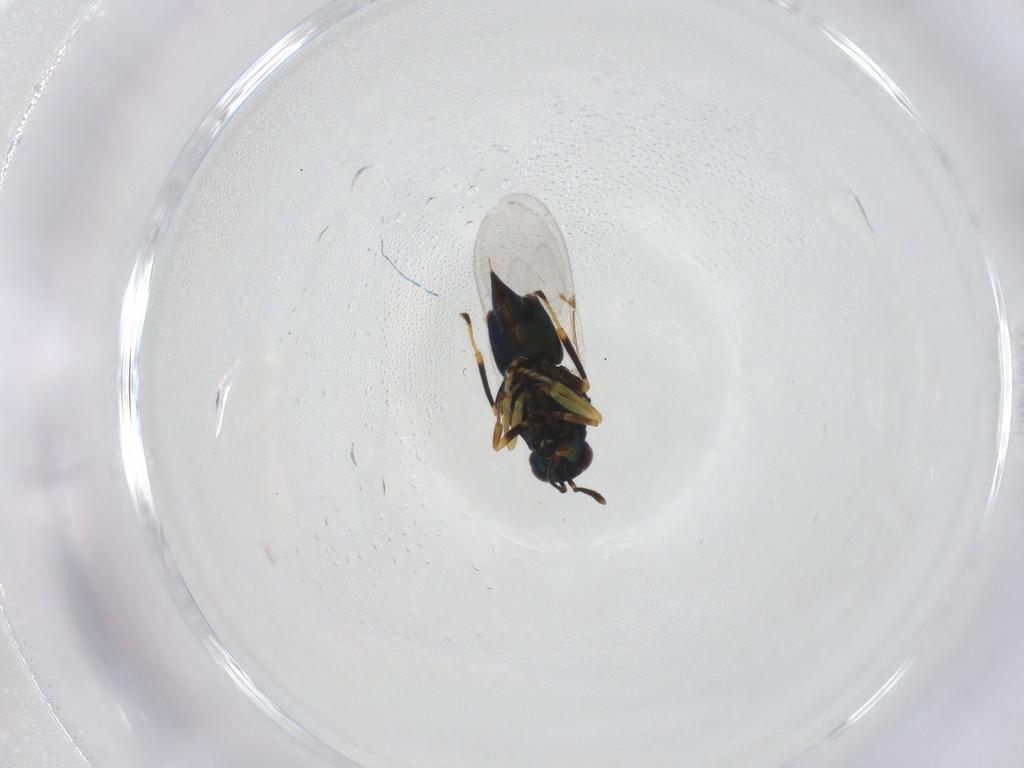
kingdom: Animalia
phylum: Arthropoda
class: Insecta
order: Hymenoptera
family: Encyrtidae
